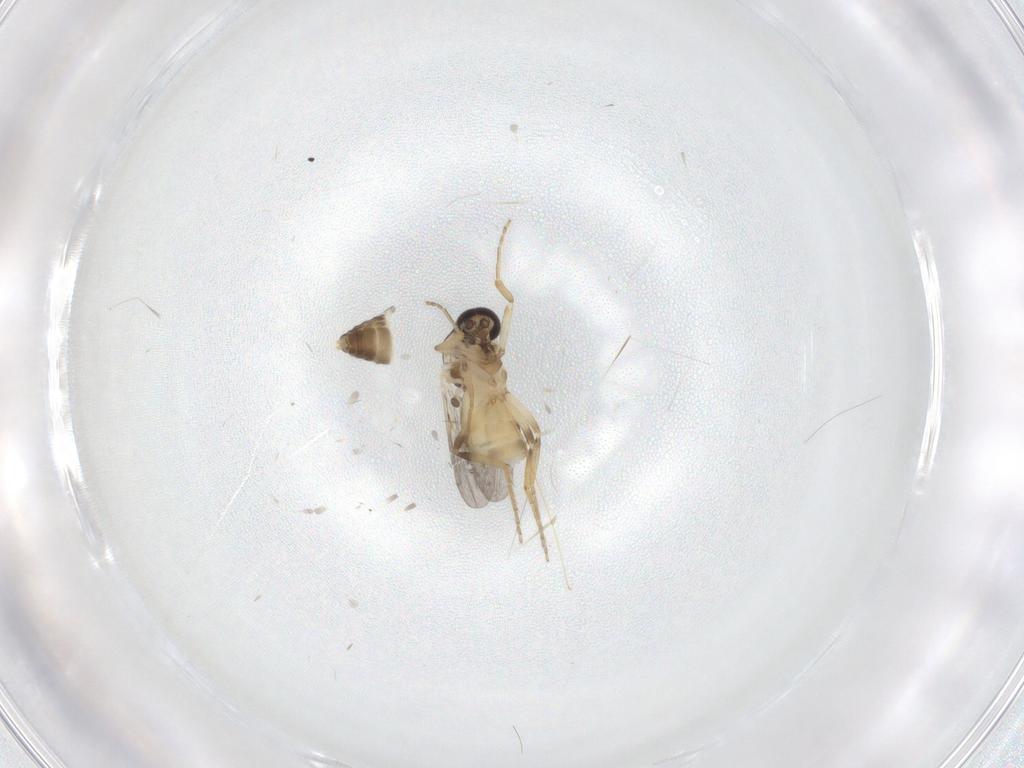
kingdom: Animalia
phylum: Arthropoda
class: Insecta
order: Diptera
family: Ceratopogonidae
